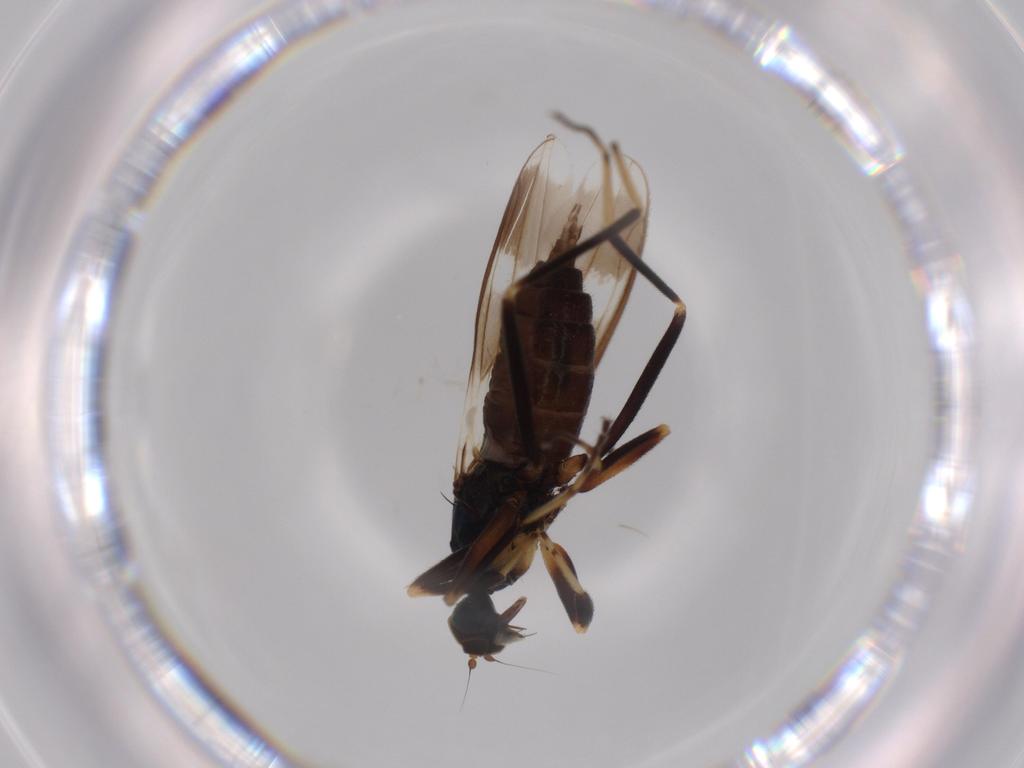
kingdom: Animalia
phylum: Arthropoda
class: Insecta
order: Diptera
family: Hybotidae
